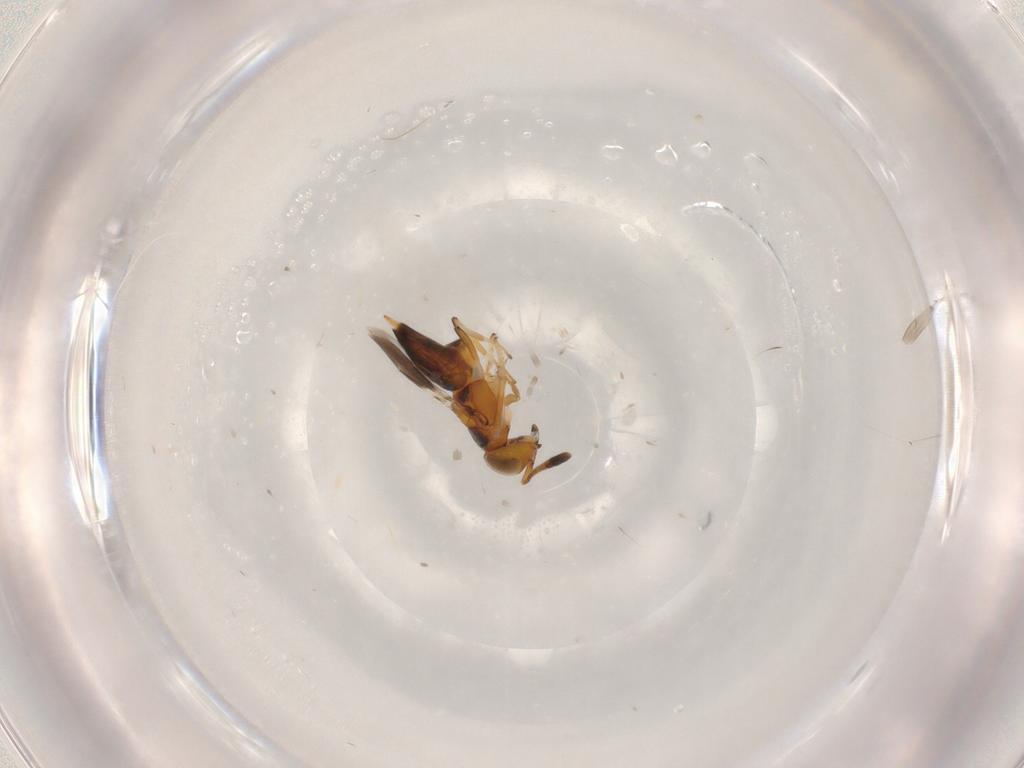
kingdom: Animalia
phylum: Arthropoda
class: Insecta
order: Hymenoptera
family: Encyrtidae
